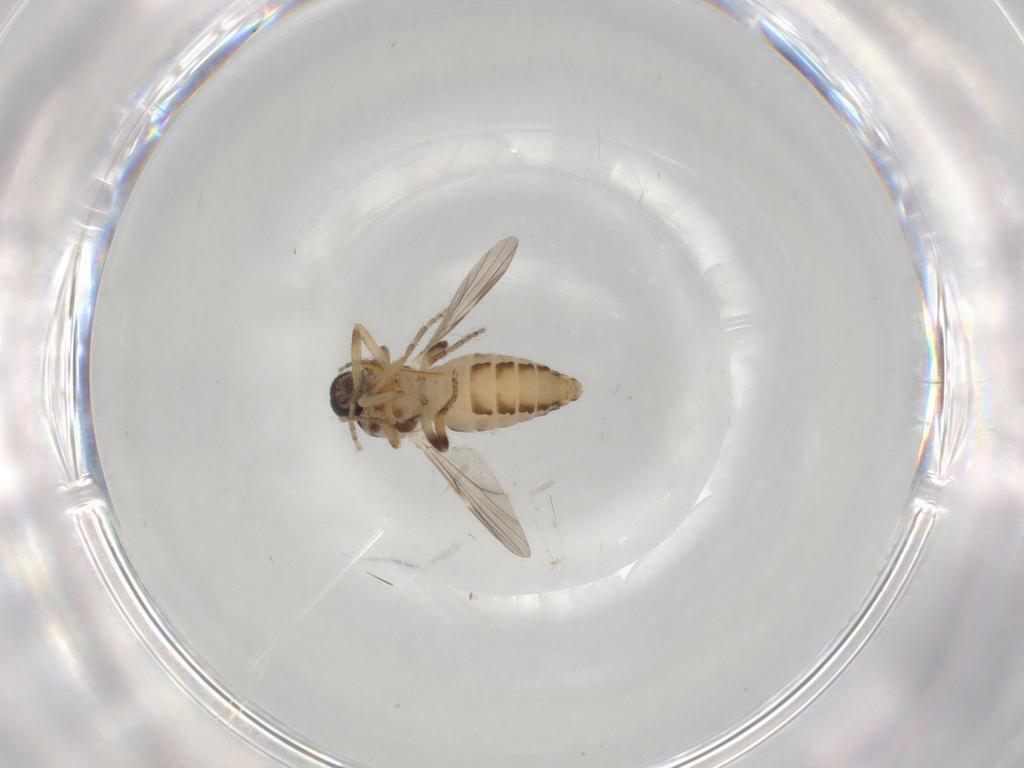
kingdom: Animalia
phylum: Arthropoda
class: Insecta
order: Diptera
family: Ceratopogonidae
